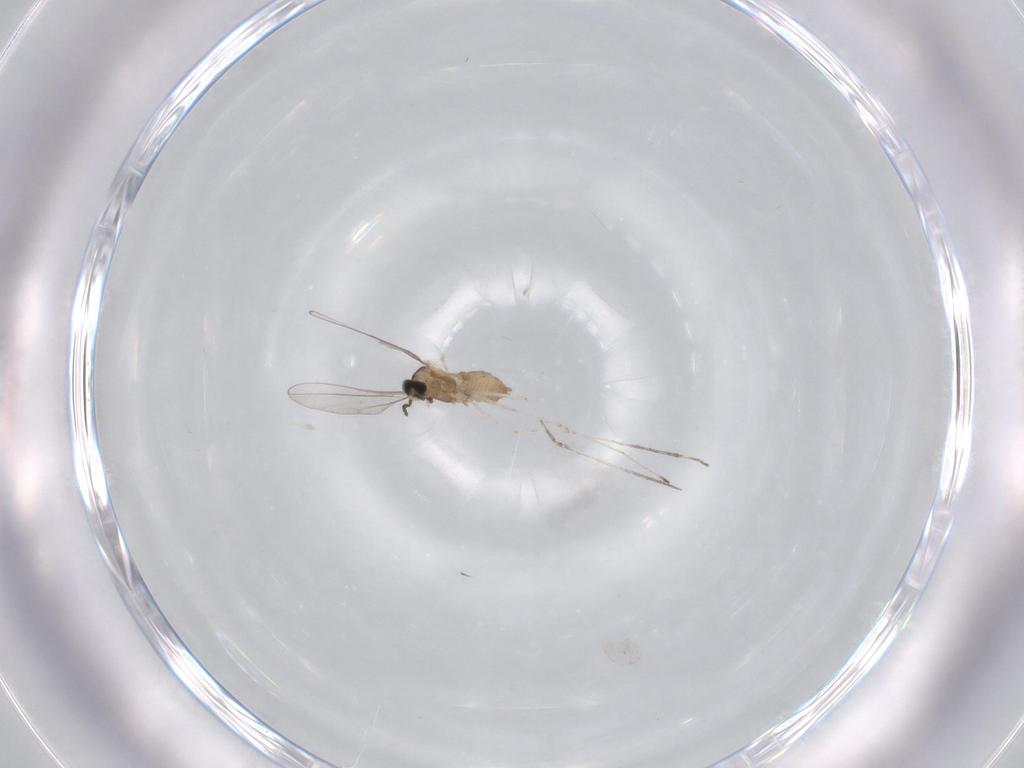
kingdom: Animalia
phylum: Arthropoda
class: Insecta
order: Diptera
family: Cecidomyiidae
